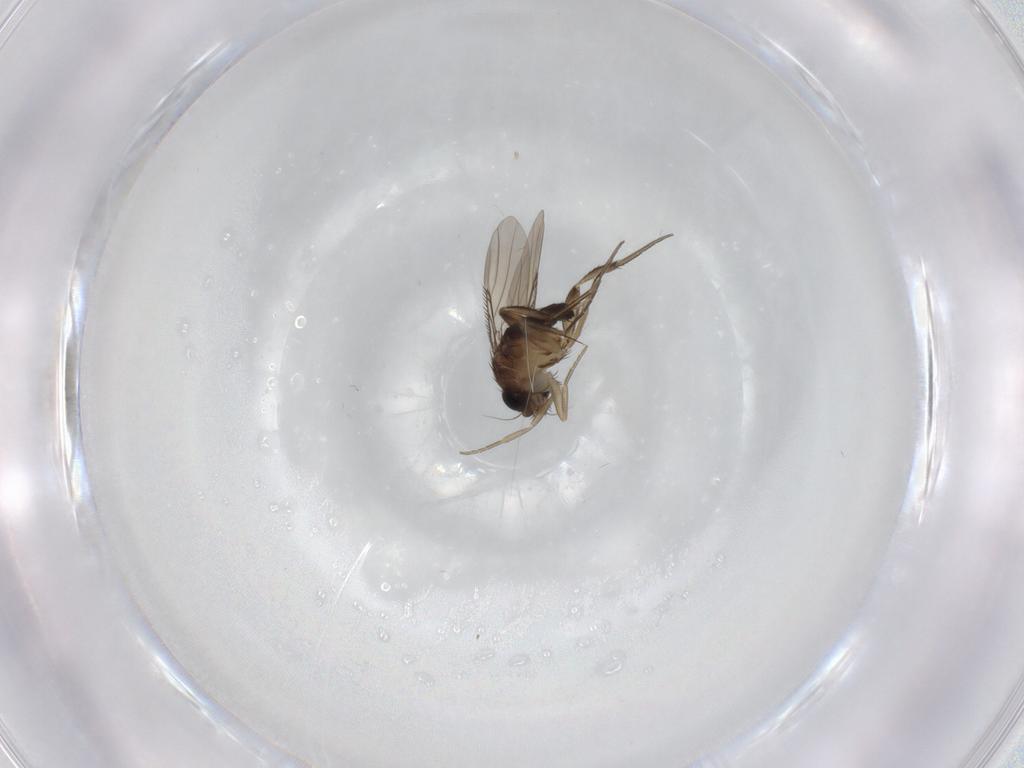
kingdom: Animalia
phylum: Arthropoda
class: Insecta
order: Diptera
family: Phoridae
